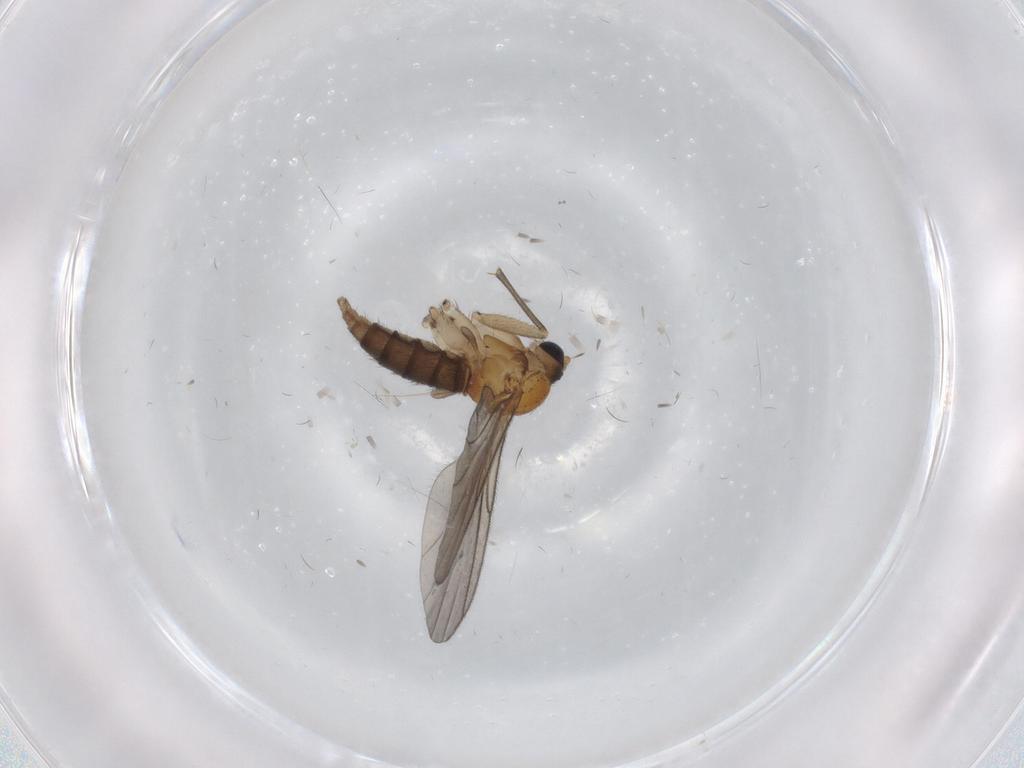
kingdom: Animalia
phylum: Arthropoda
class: Insecta
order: Diptera
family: Sciaridae
